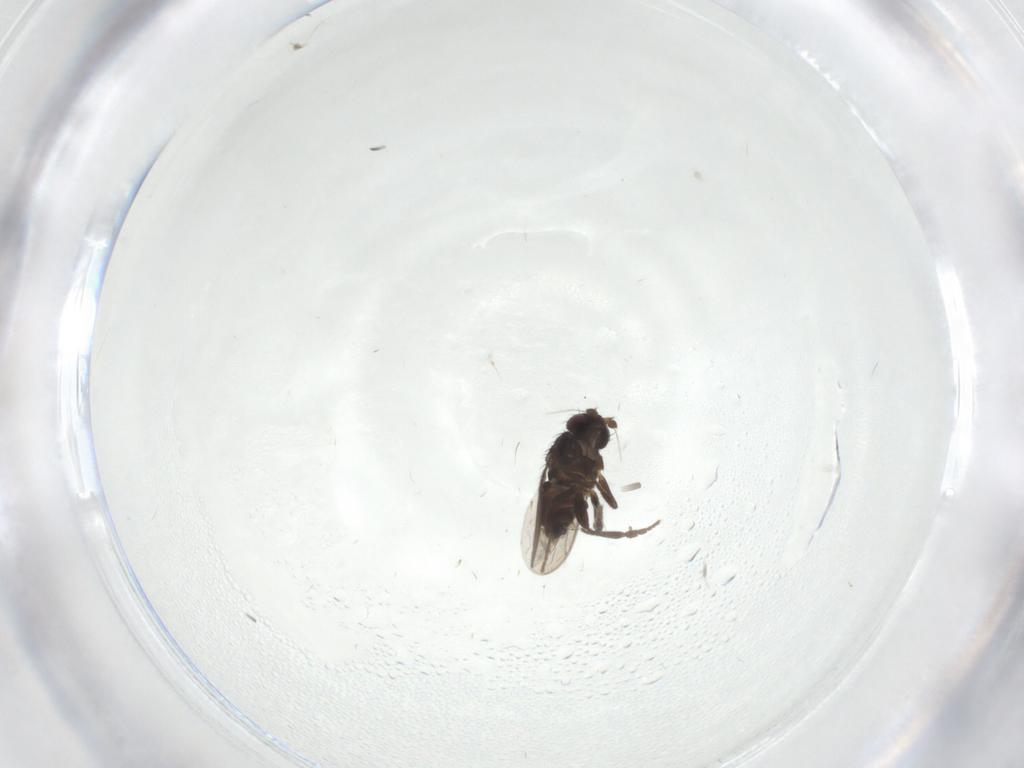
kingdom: Animalia
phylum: Arthropoda
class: Insecta
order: Diptera
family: Sphaeroceridae
